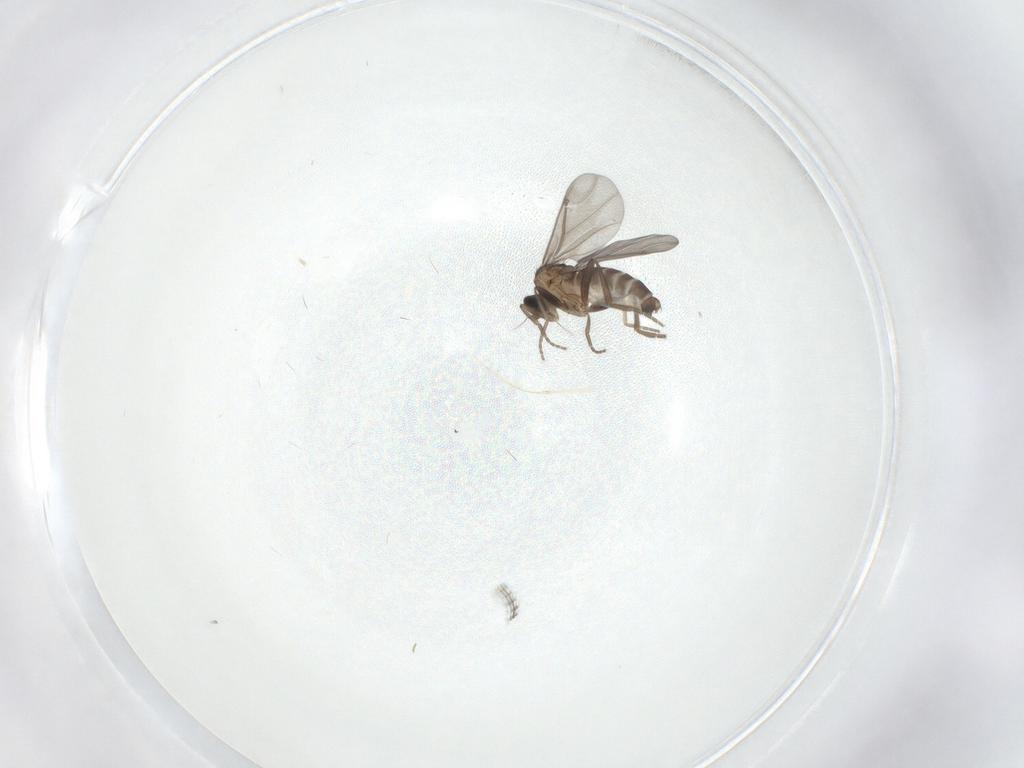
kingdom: Animalia
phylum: Arthropoda
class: Insecta
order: Diptera
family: Phoridae
